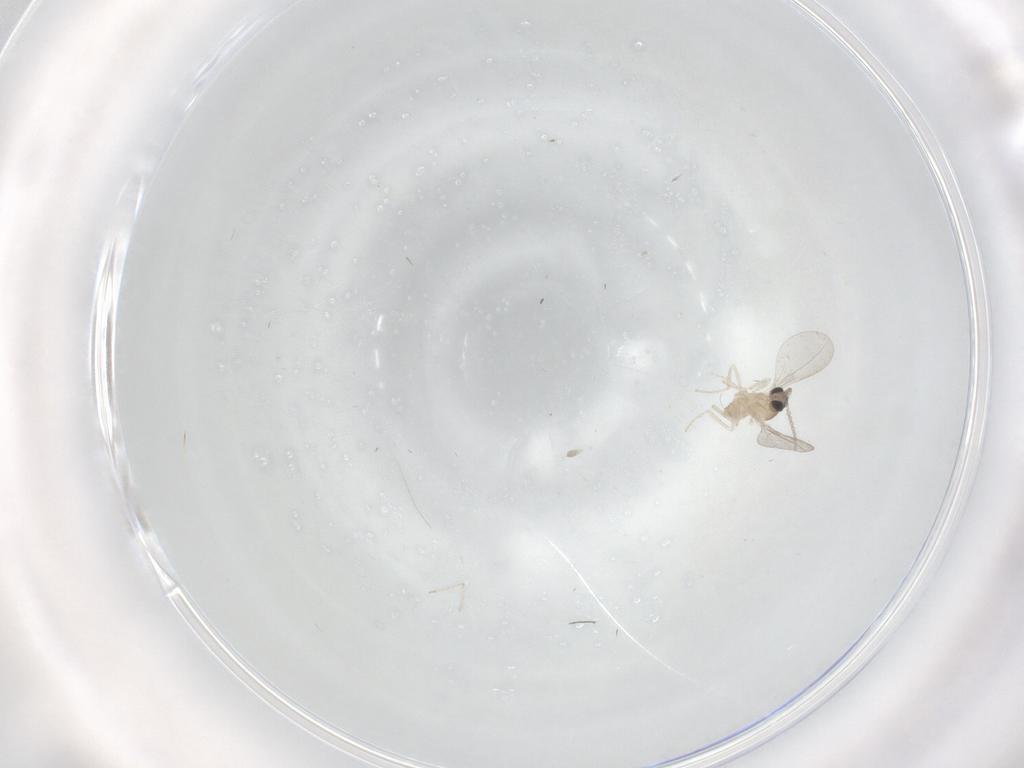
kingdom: Animalia
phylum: Arthropoda
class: Insecta
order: Diptera
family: Cecidomyiidae
